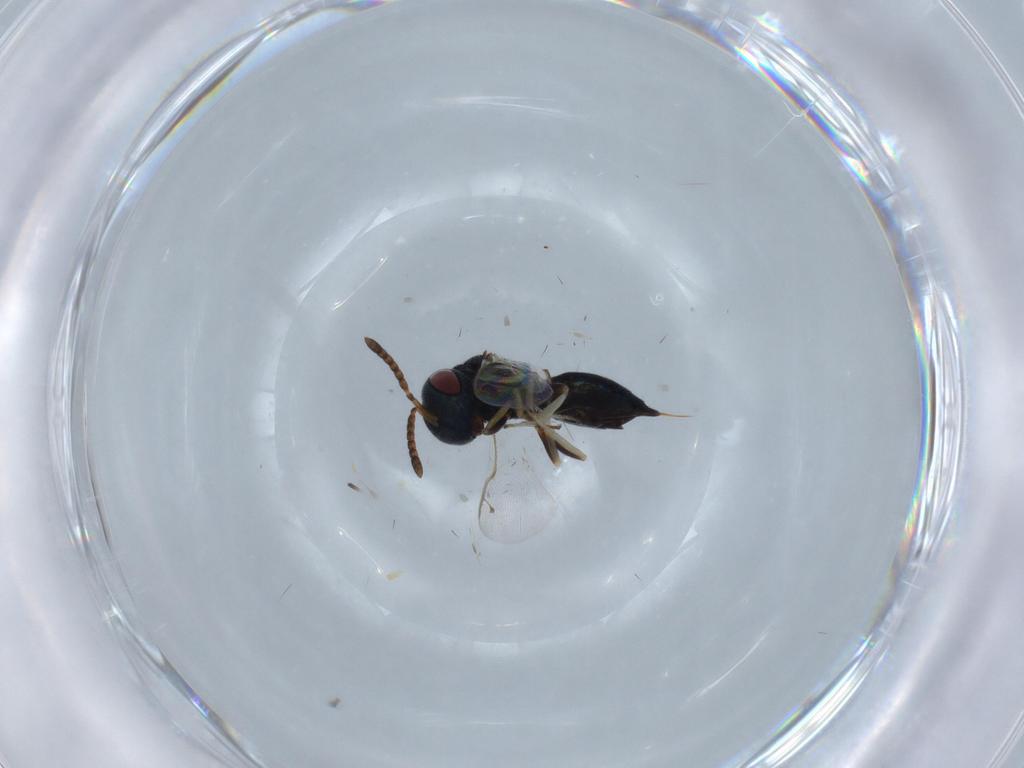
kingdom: Animalia
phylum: Arthropoda
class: Insecta
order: Hymenoptera
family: Pteromalidae
